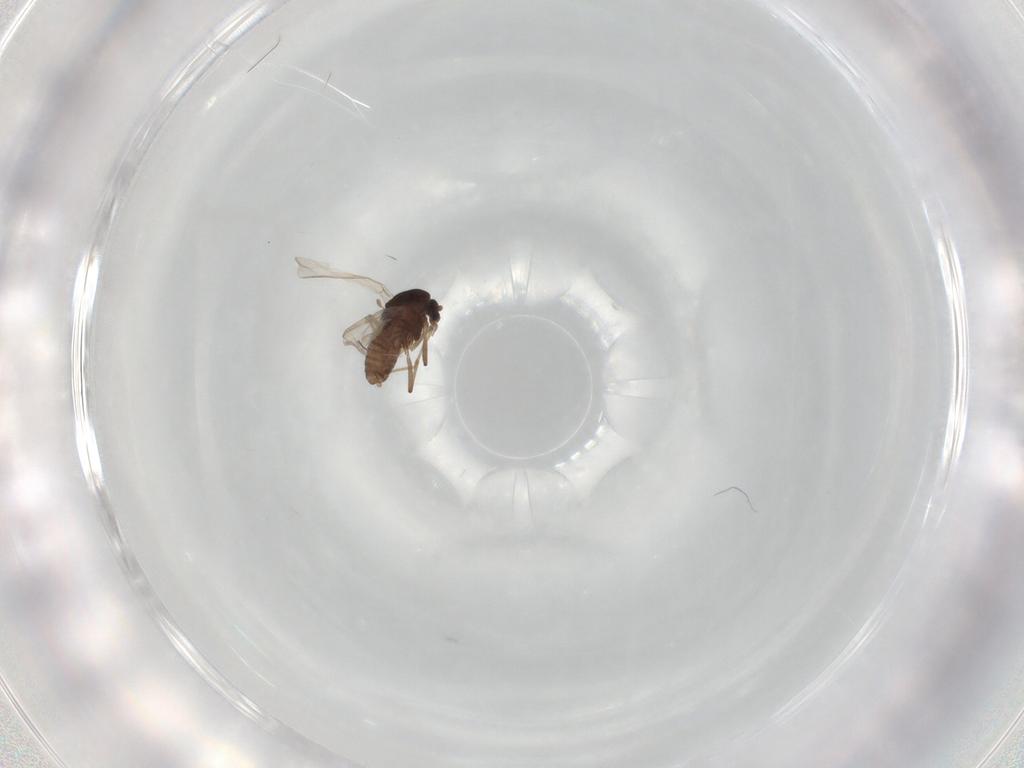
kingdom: Animalia
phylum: Arthropoda
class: Insecta
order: Diptera
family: Chironomidae
